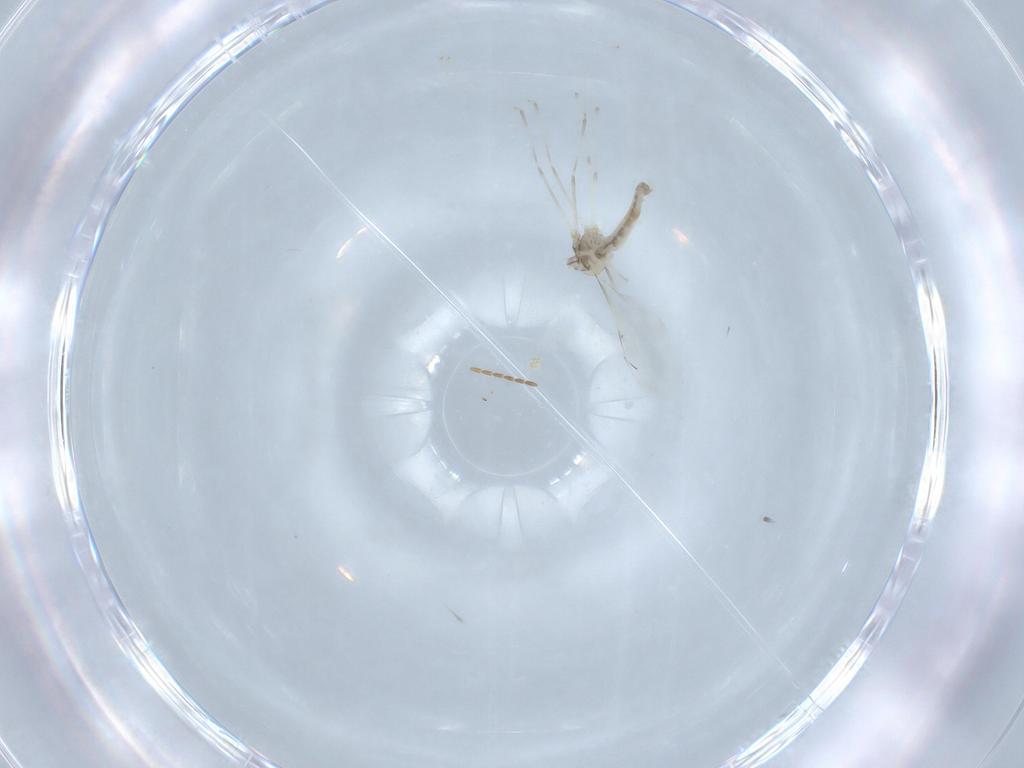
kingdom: Animalia
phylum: Arthropoda
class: Insecta
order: Diptera
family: Cecidomyiidae
